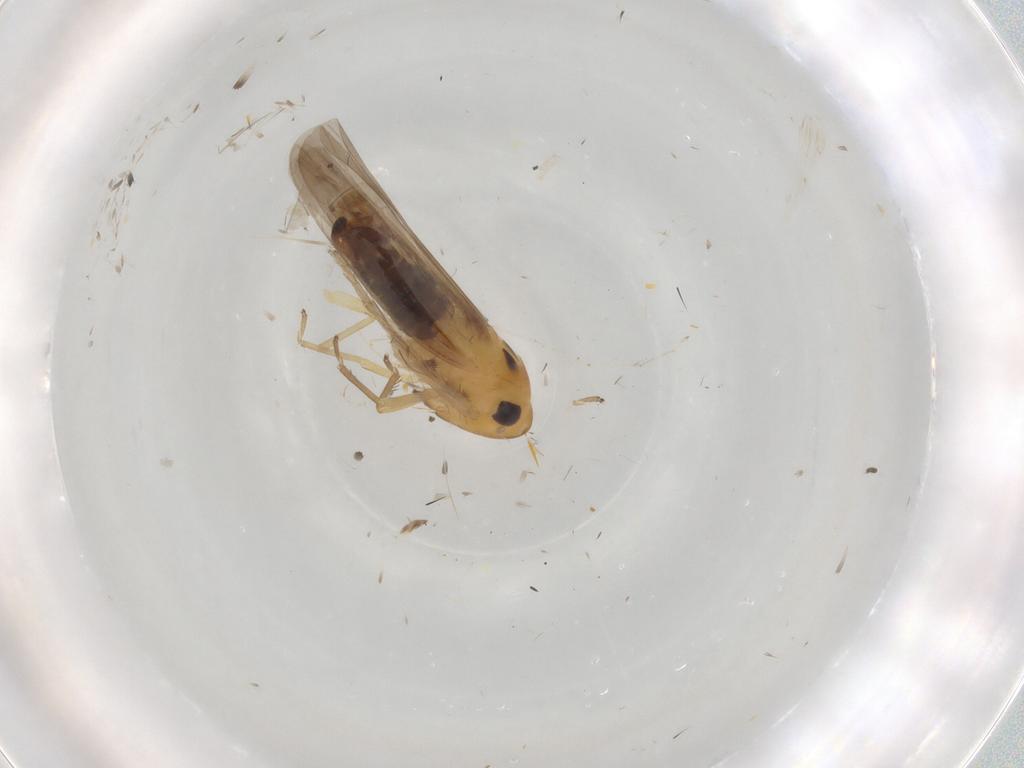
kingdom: Animalia
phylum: Arthropoda
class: Insecta
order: Hemiptera
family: Cicadellidae
